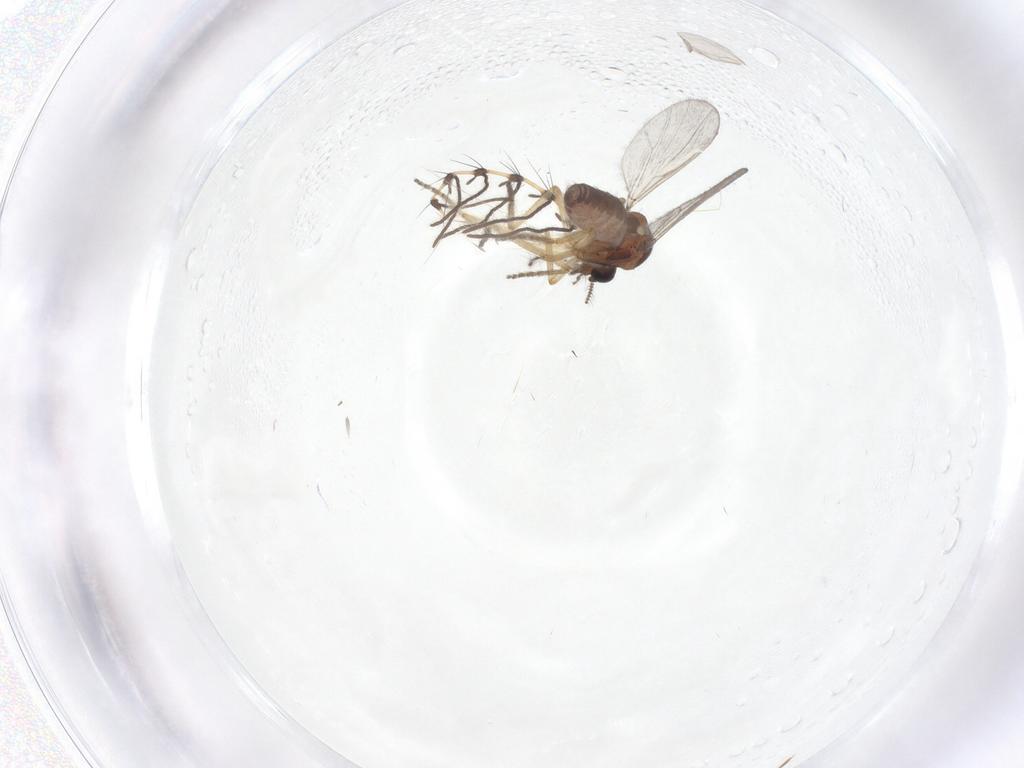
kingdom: Animalia
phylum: Arthropoda
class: Insecta
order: Diptera
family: Ceratopogonidae
